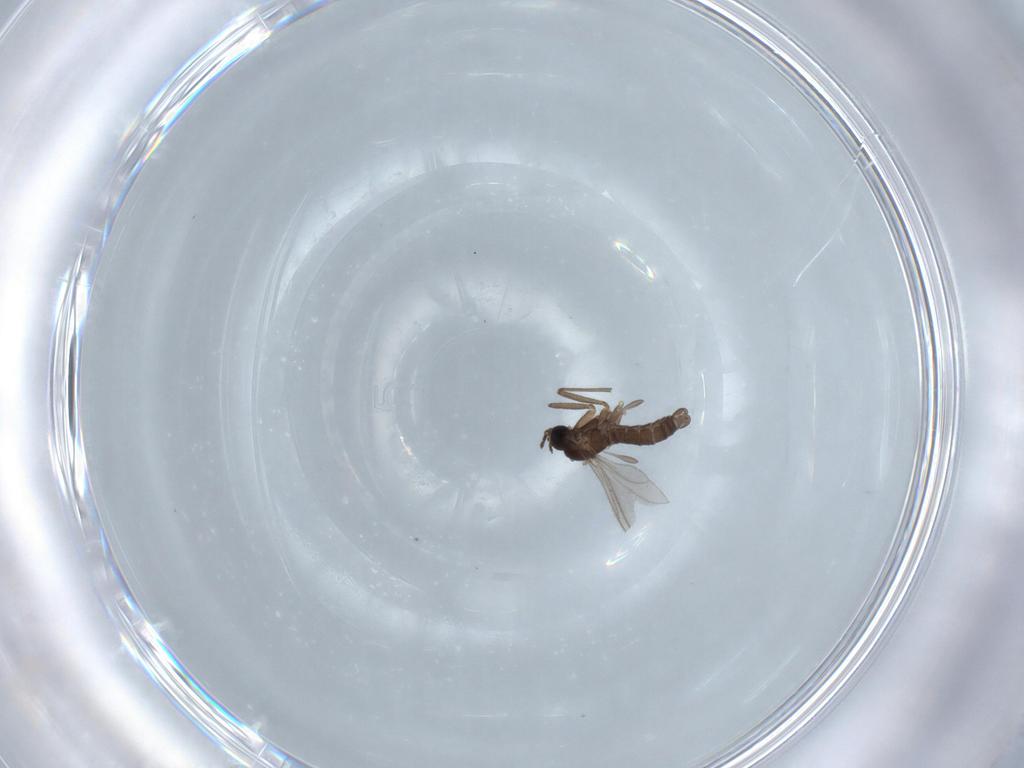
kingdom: Animalia
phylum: Arthropoda
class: Insecta
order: Diptera
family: Sciaridae
